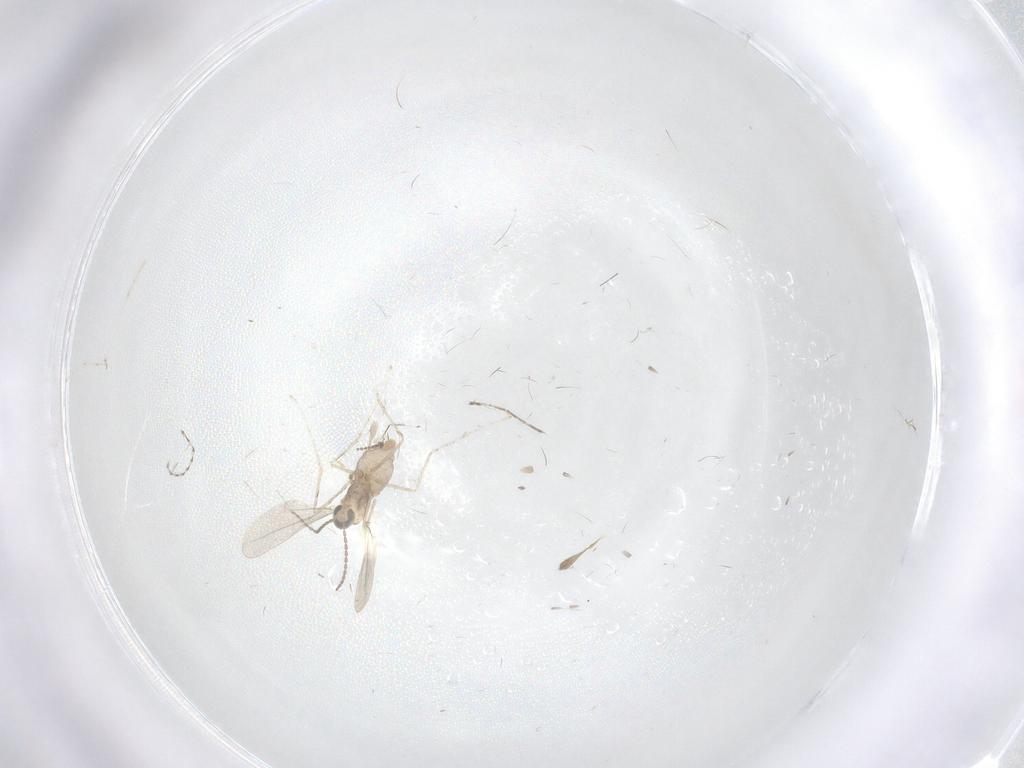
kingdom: Animalia
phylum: Arthropoda
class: Insecta
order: Diptera
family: Cecidomyiidae
